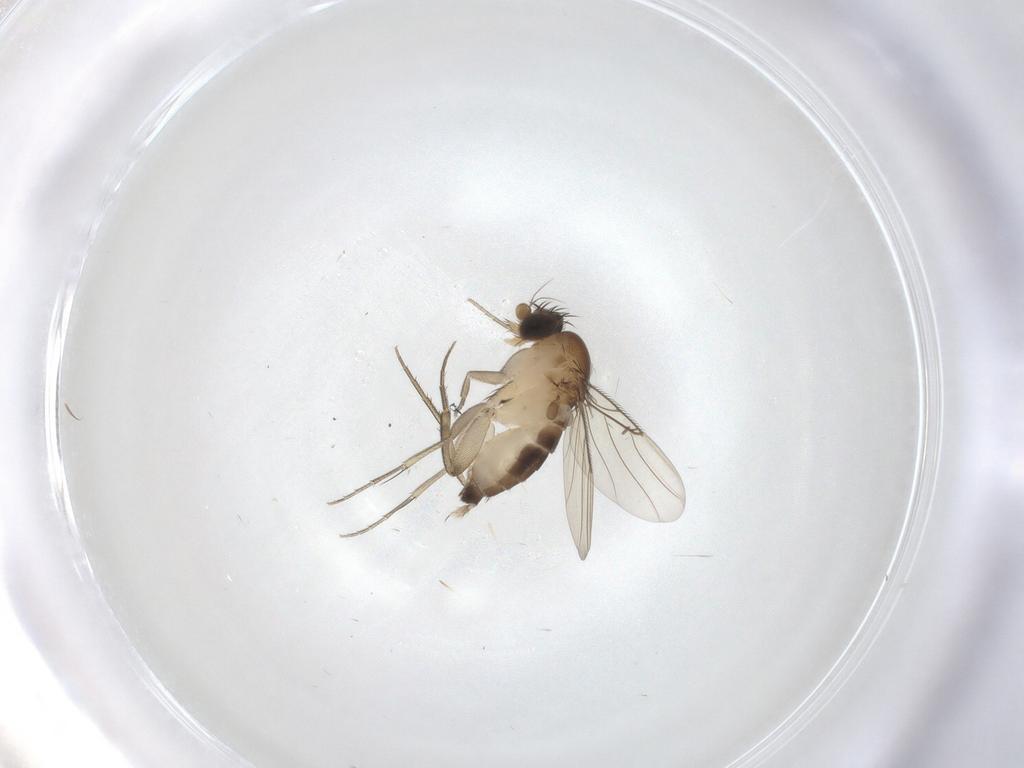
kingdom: Animalia
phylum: Arthropoda
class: Insecta
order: Diptera
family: Phoridae
